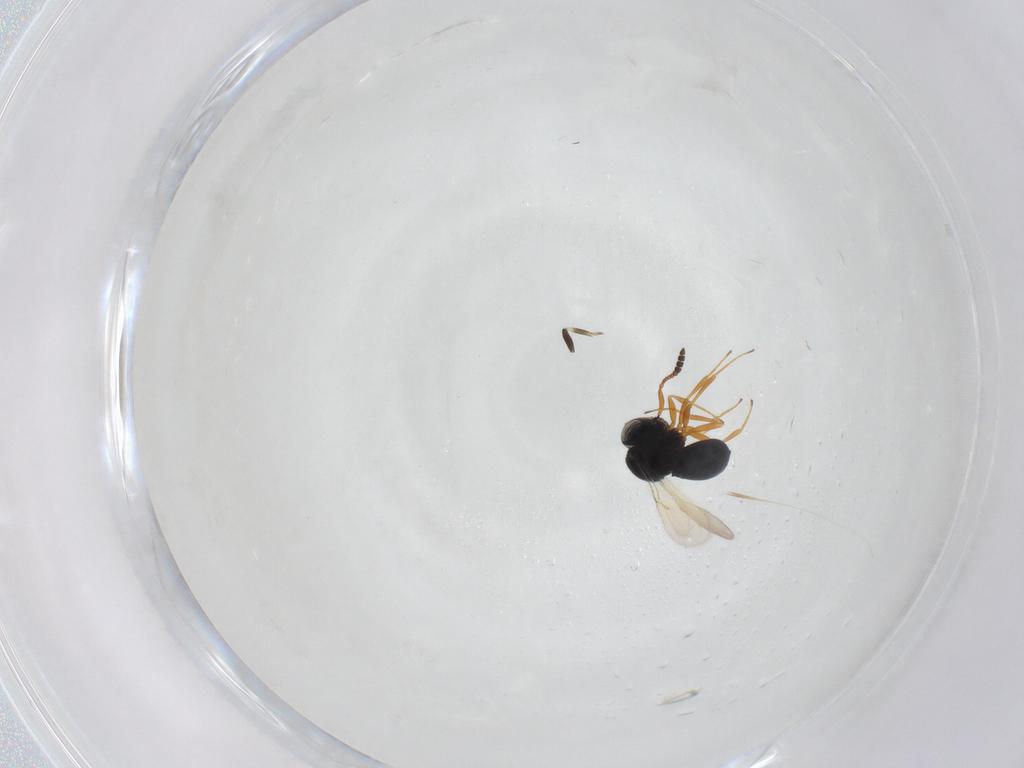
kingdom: Animalia
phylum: Arthropoda
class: Insecta
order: Hymenoptera
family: Scelionidae
